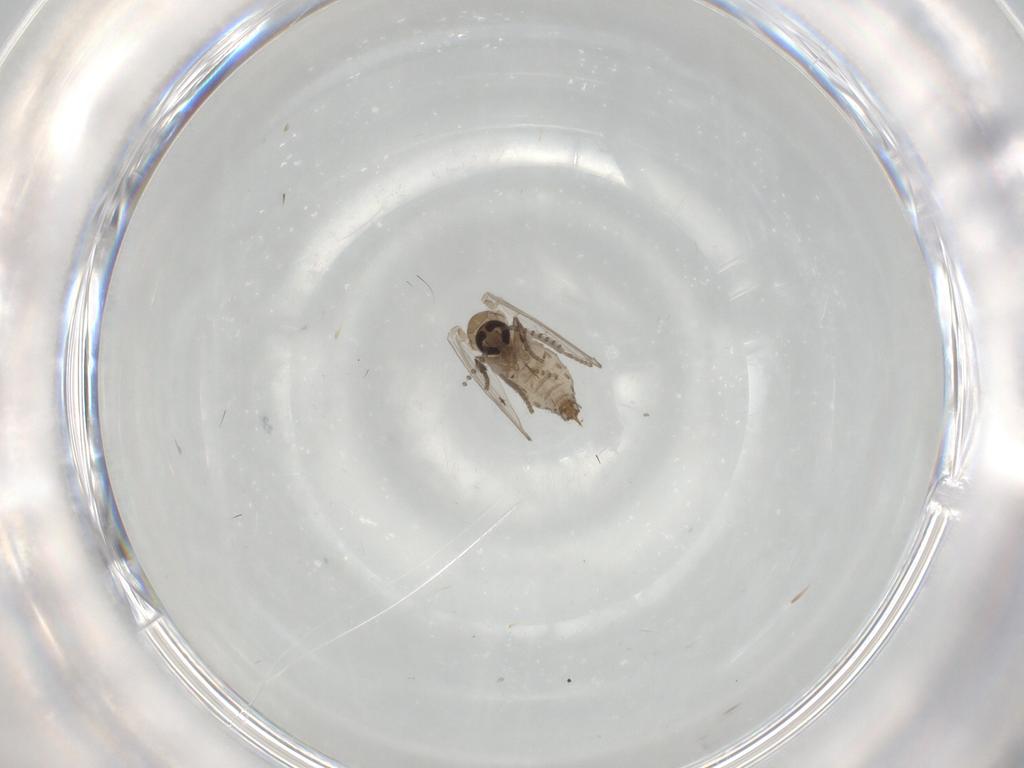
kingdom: Animalia
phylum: Arthropoda
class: Insecta
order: Diptera
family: Psychodidae
